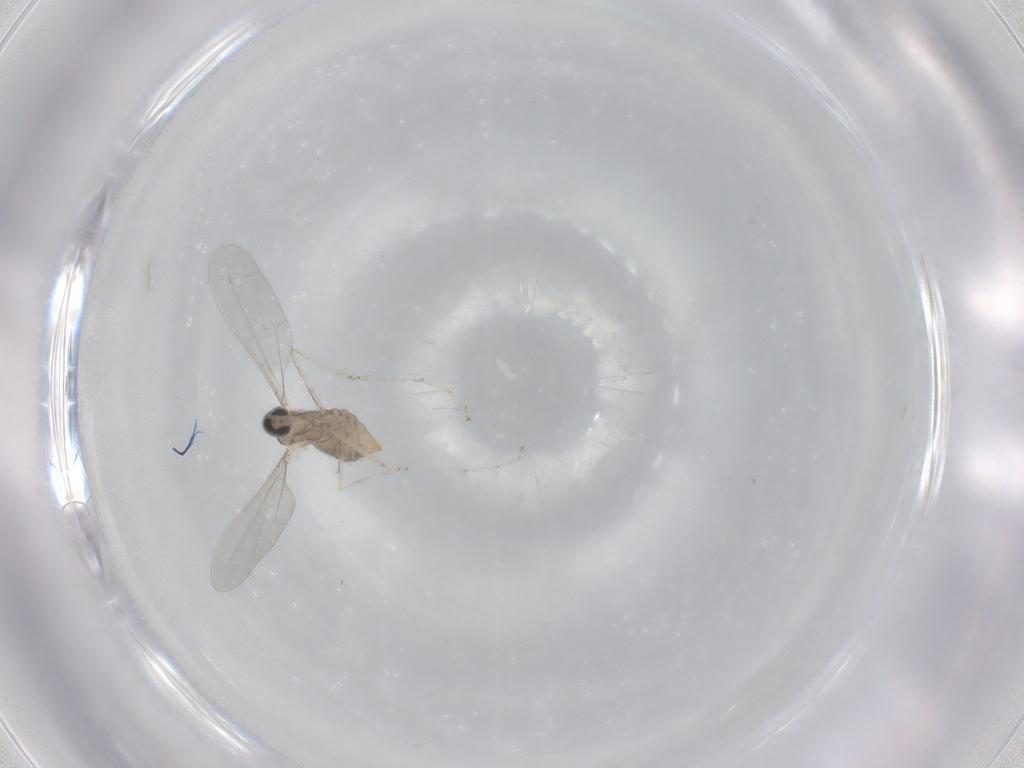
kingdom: Animalia
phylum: Arthropoda
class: Insecta
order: Diptera
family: Cecidomyiidae
